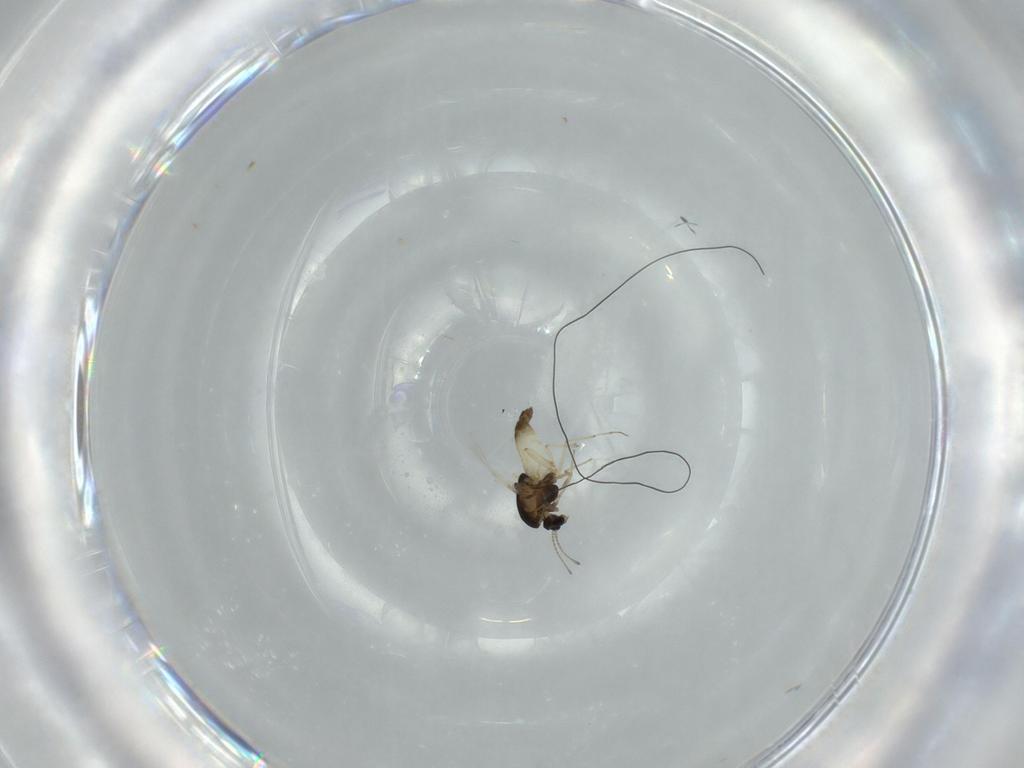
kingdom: Animalia
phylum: Arthropoda
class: Insecta
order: Diptera
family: Chironomidae
